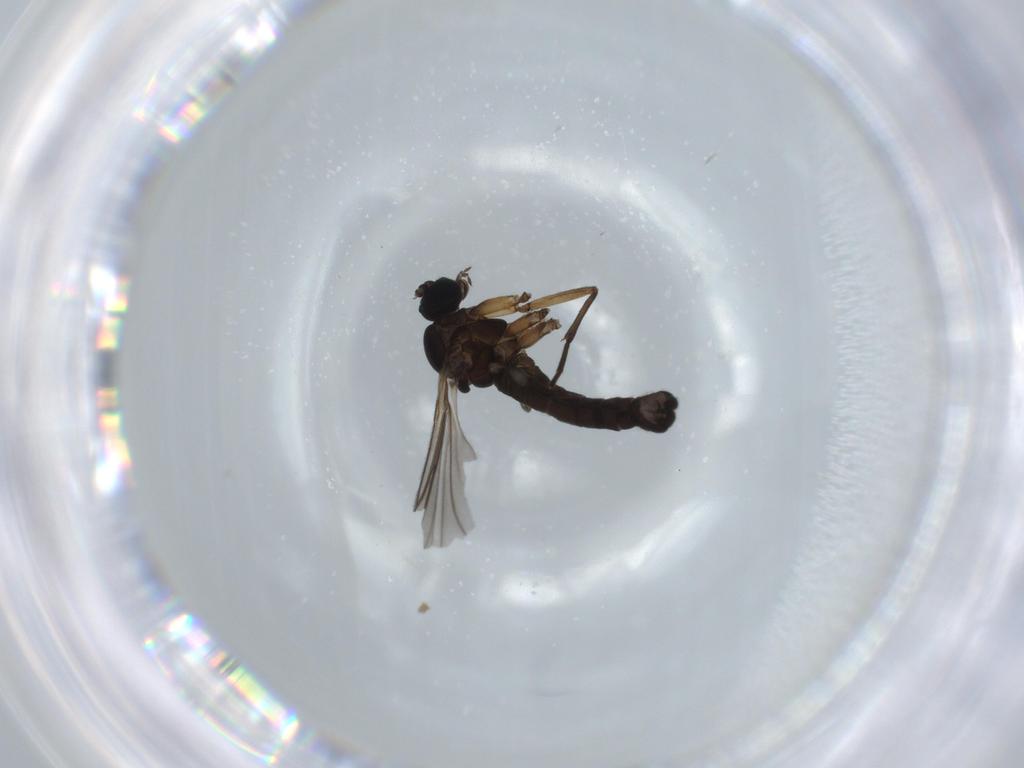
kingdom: Animalia
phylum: Arthropoda
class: Insecta
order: Diptera
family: Sciaridae
